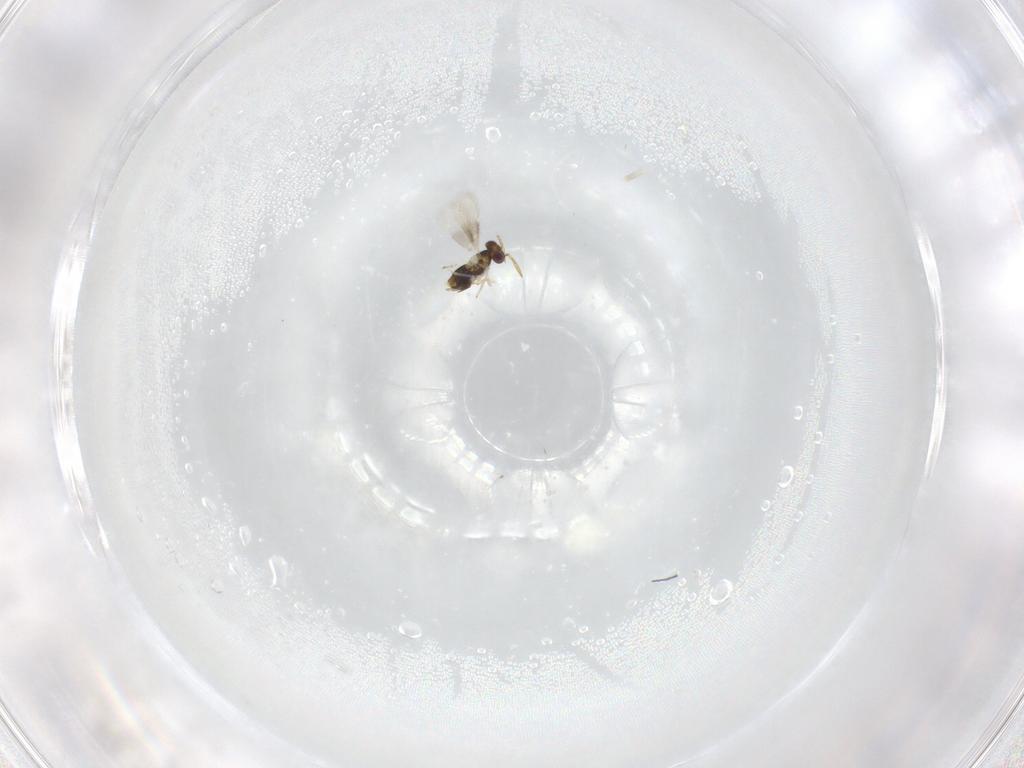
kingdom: Animalia
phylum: Arthropoda
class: Insecta
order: Hymenoptera
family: Aphelinidae
